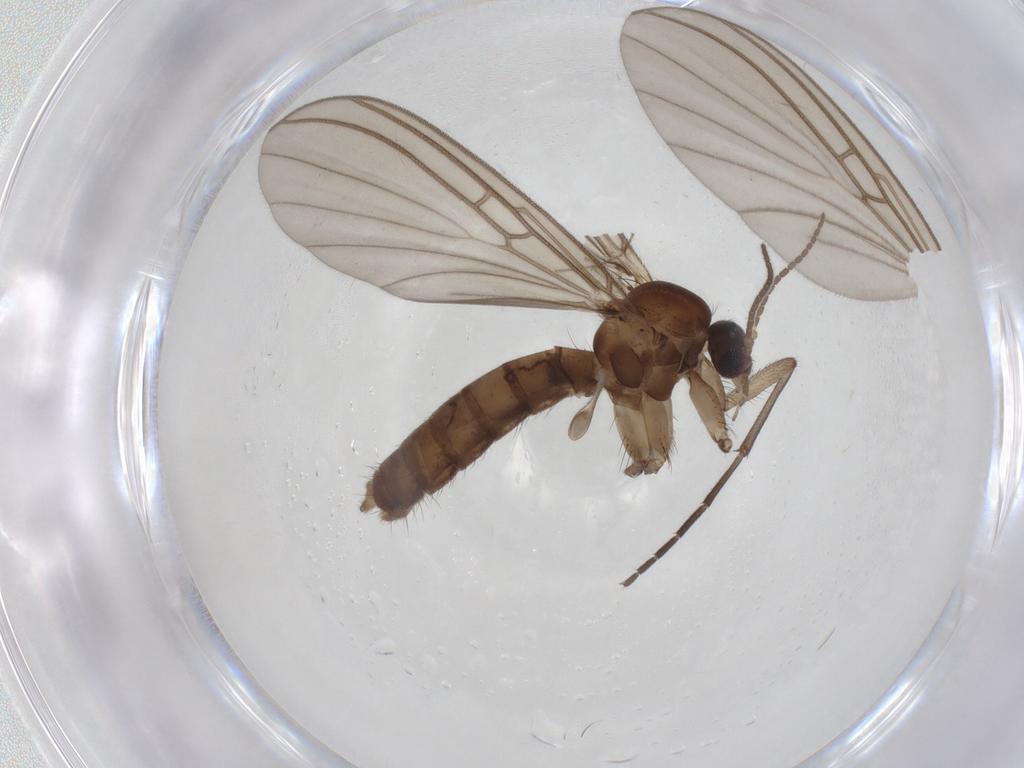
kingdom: Animalia
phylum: Arthropoda
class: Insecta
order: Diptera
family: Mycetophilidae
